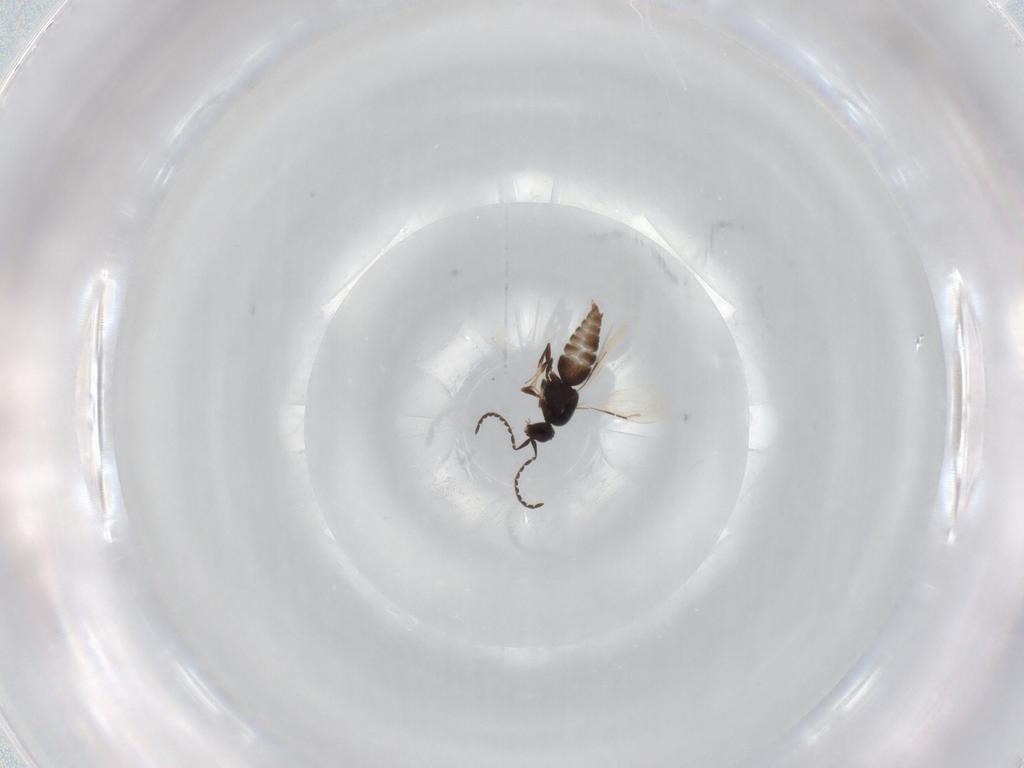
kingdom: Animalia
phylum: Arthropoda
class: Insecta
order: Hymenoptera
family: Ceraphronidae
